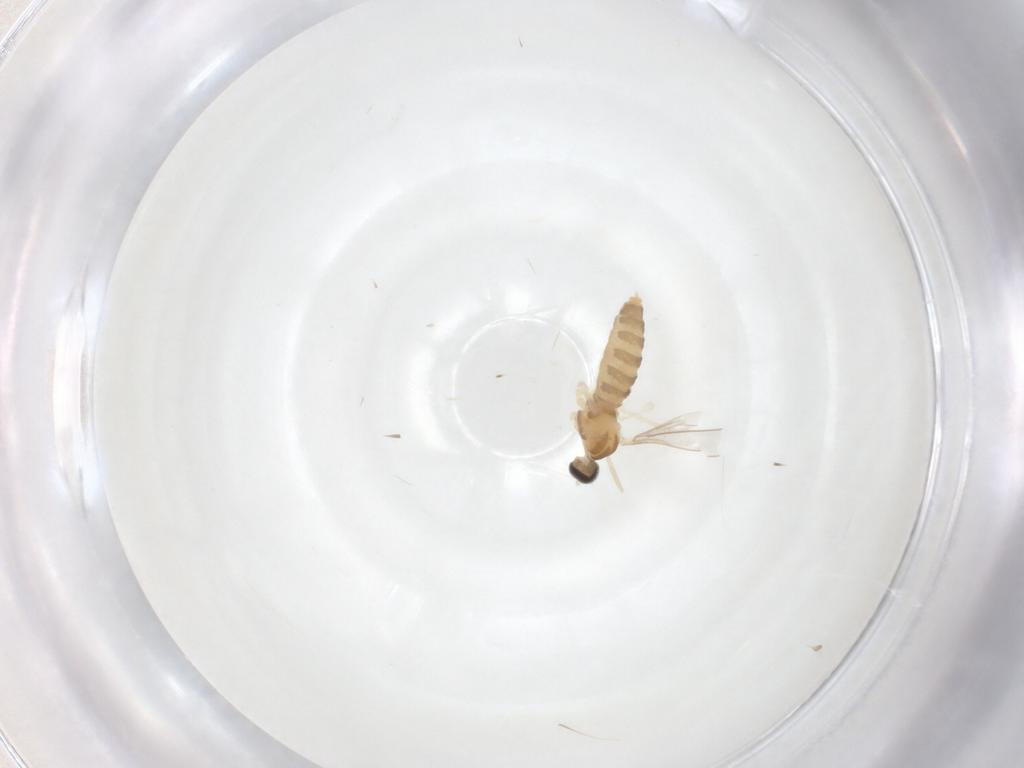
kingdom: Animalia
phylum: Arthropoda
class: Insecta
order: Diptera
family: Cecidomyiidae
